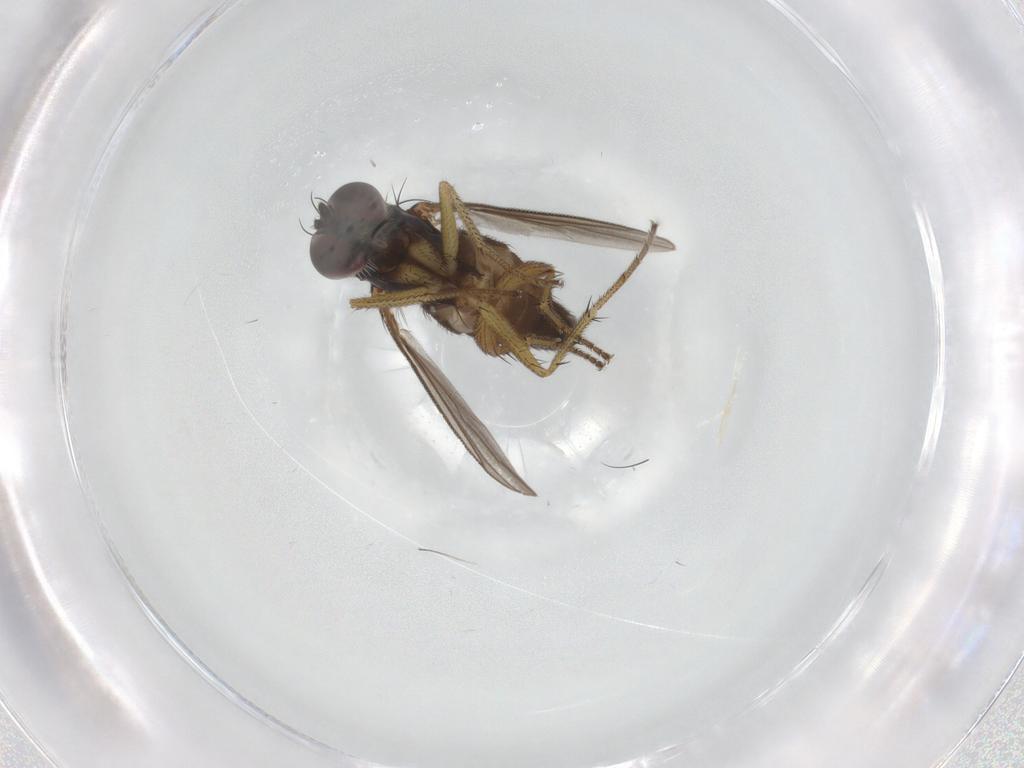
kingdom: Animalia
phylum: Arthropoda
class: Insecta
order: Diptera
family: Dolichopodidae
